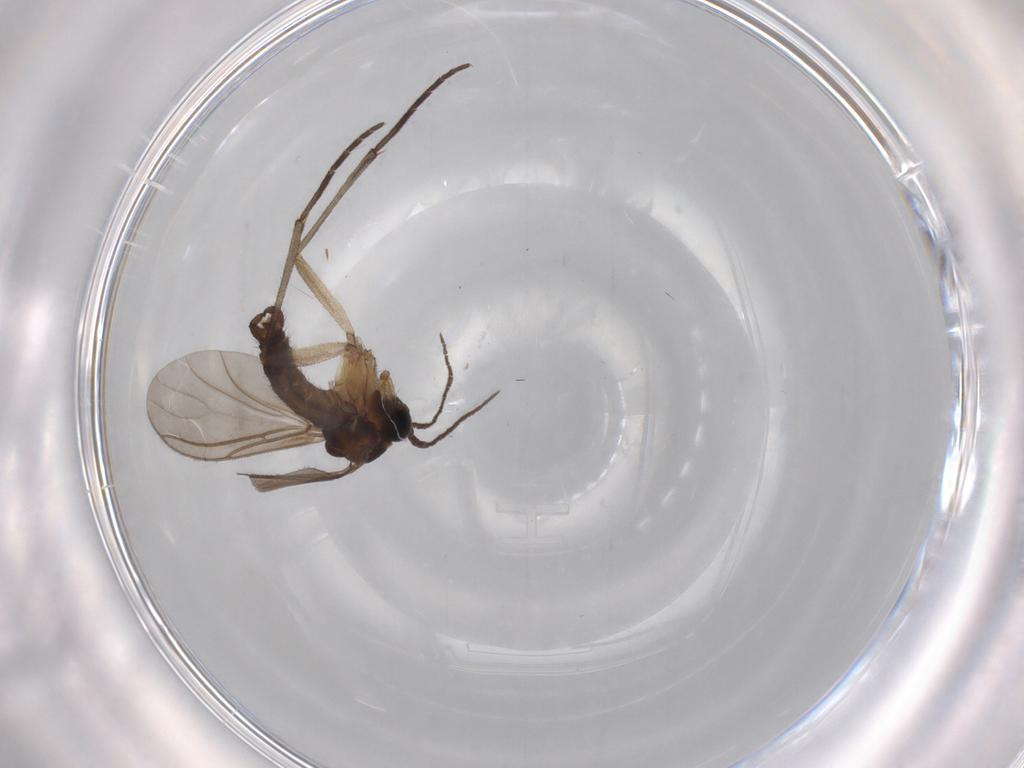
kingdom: Animalia
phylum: Arthropoda
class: Insecta
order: Diptera
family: Sciaridae
